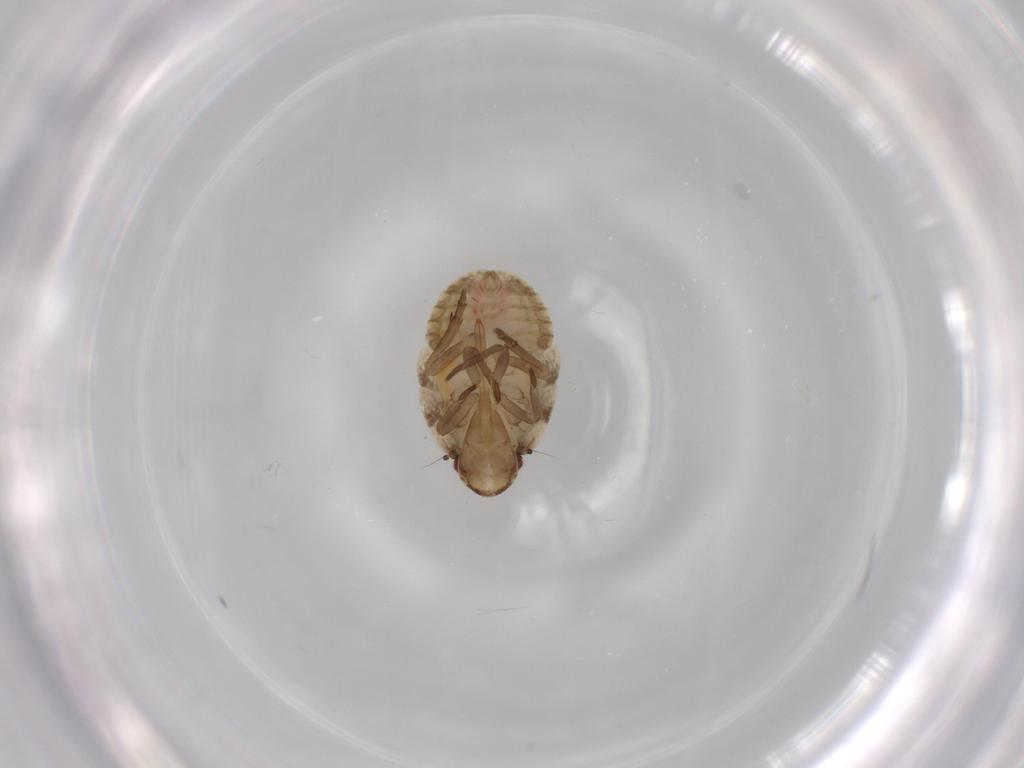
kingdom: Animalia
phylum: Arthropoda
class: Insecta
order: Hemiptera
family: Flatidae
